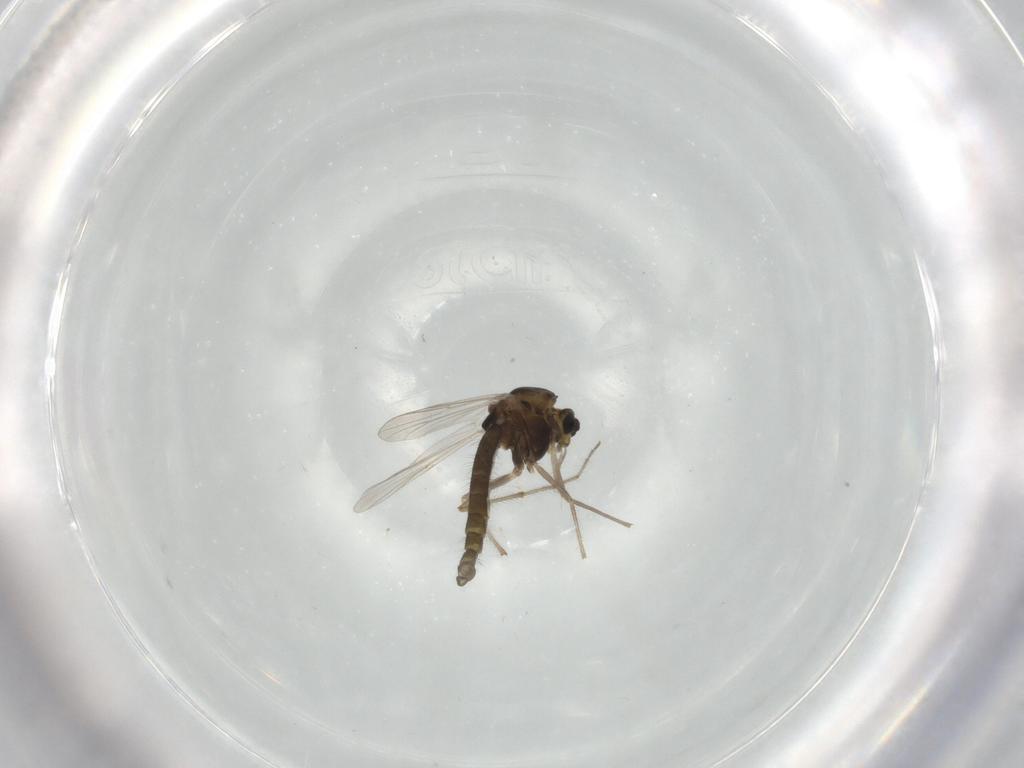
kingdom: Animalia
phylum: Arthropoda
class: Insecta
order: Diptera
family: Chironomidae
